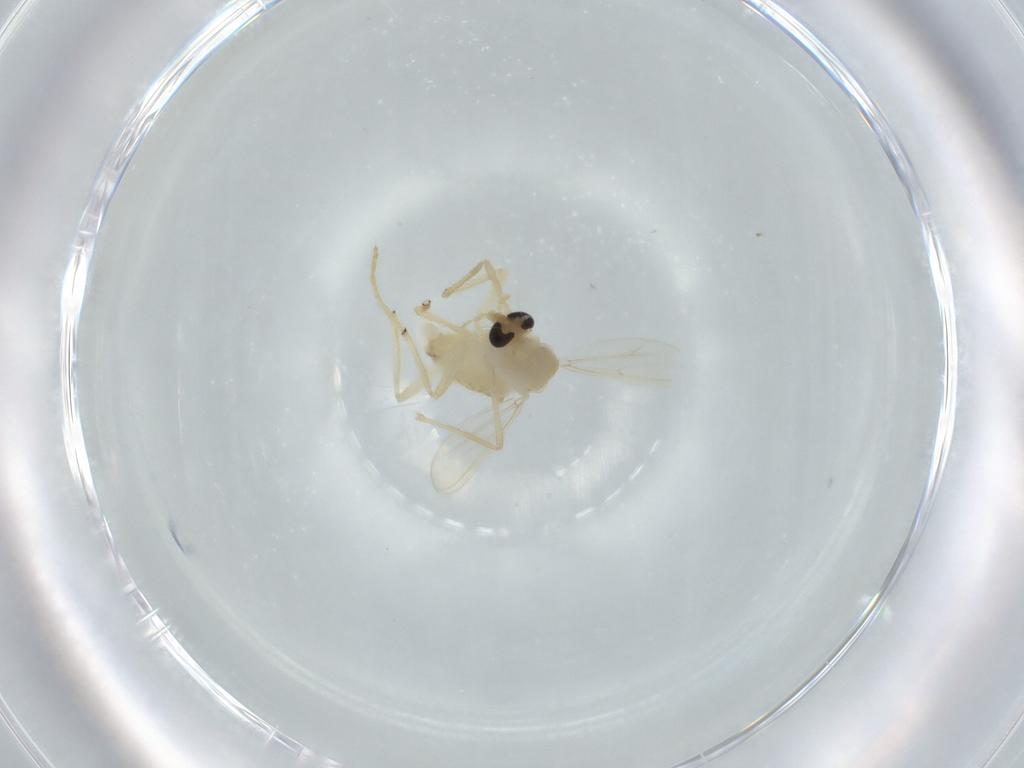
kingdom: Animalia
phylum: Arthropoda
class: Insecta
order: Diptera
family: Chironomidae
